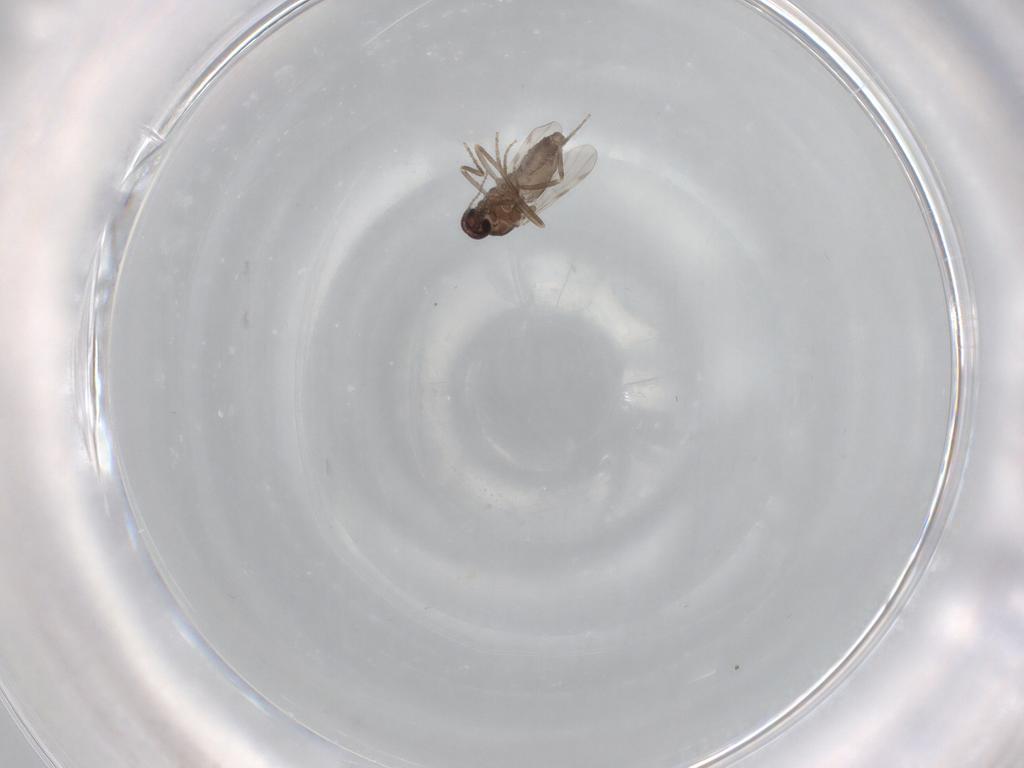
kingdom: Animalia
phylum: Arthropoda
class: Insecta
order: Diptera
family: Ceratopogonidae
